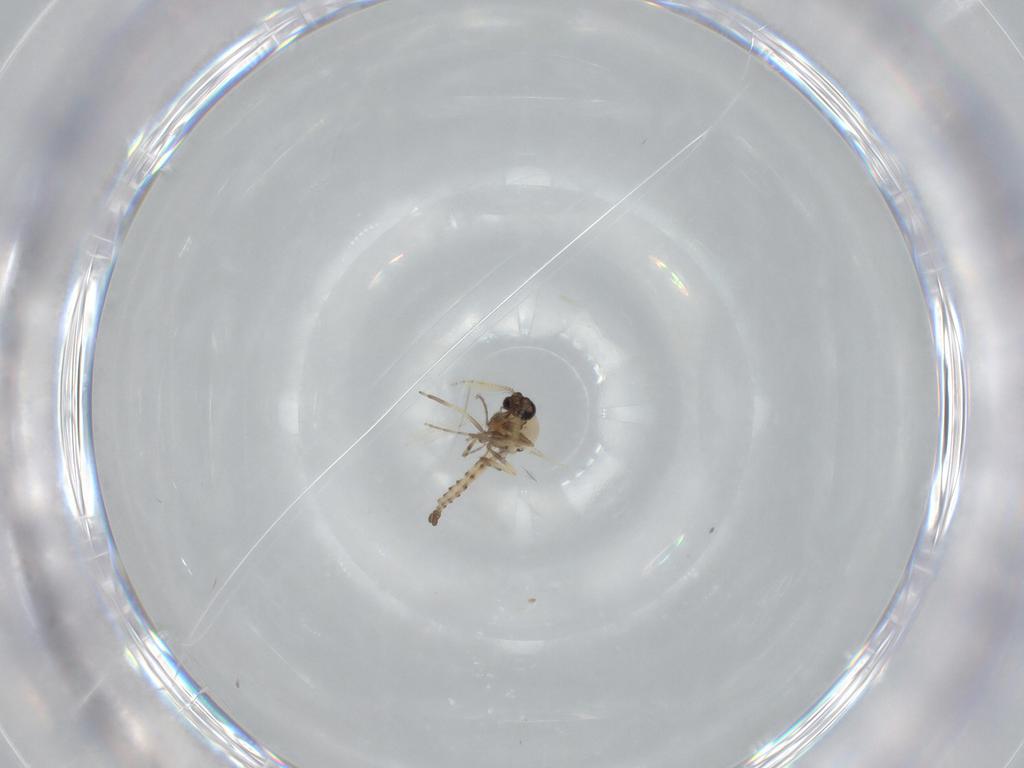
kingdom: Animalia
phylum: Arthropoda
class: Insecta
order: Diptera
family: Ceratopogonidae
